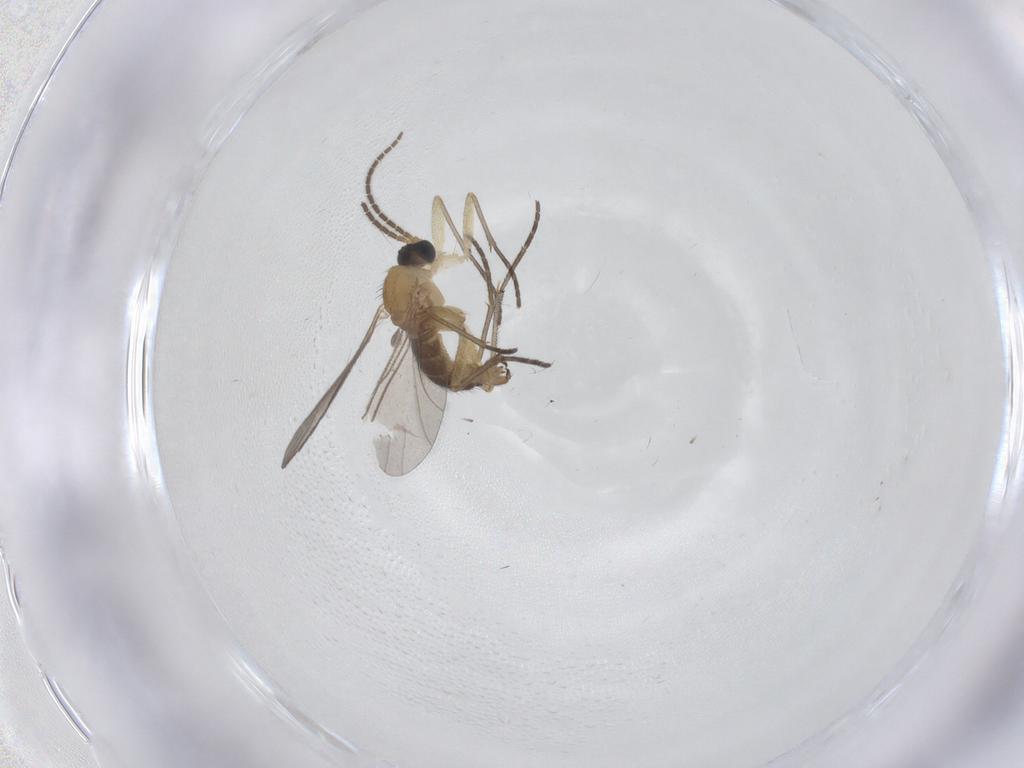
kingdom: Animalia
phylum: Arthropoda
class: Insecta
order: Diptera
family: Sciaridae
